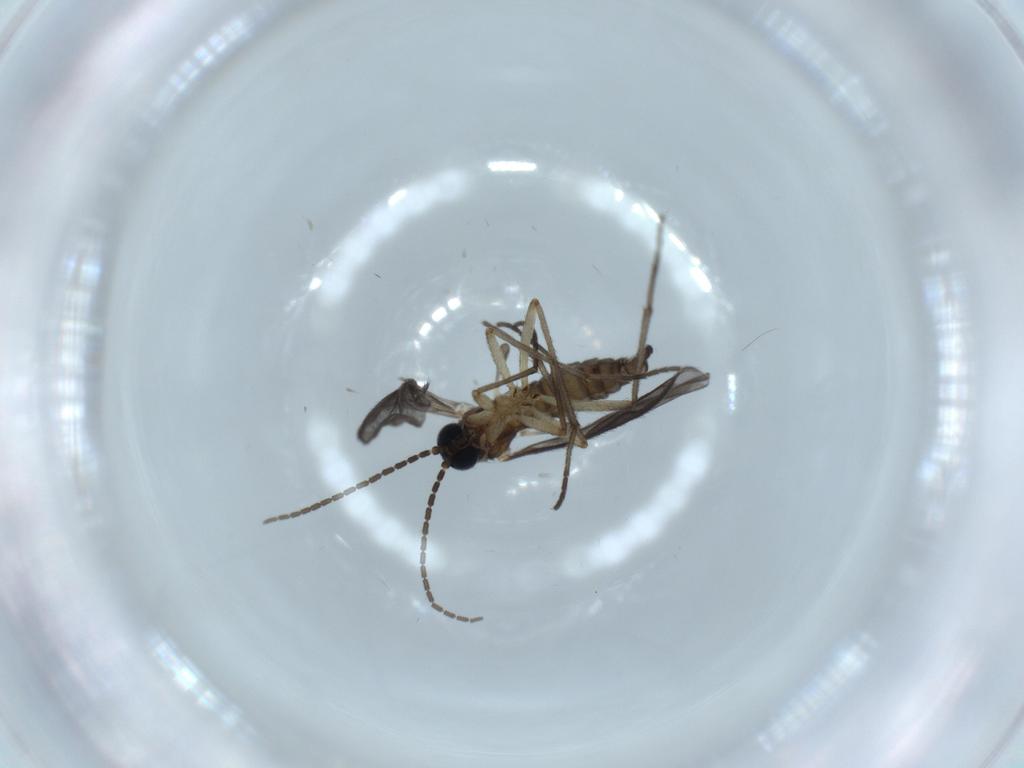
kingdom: Animalia
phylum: Arthropoda
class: Insecta
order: Diptera
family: Sciaridae
